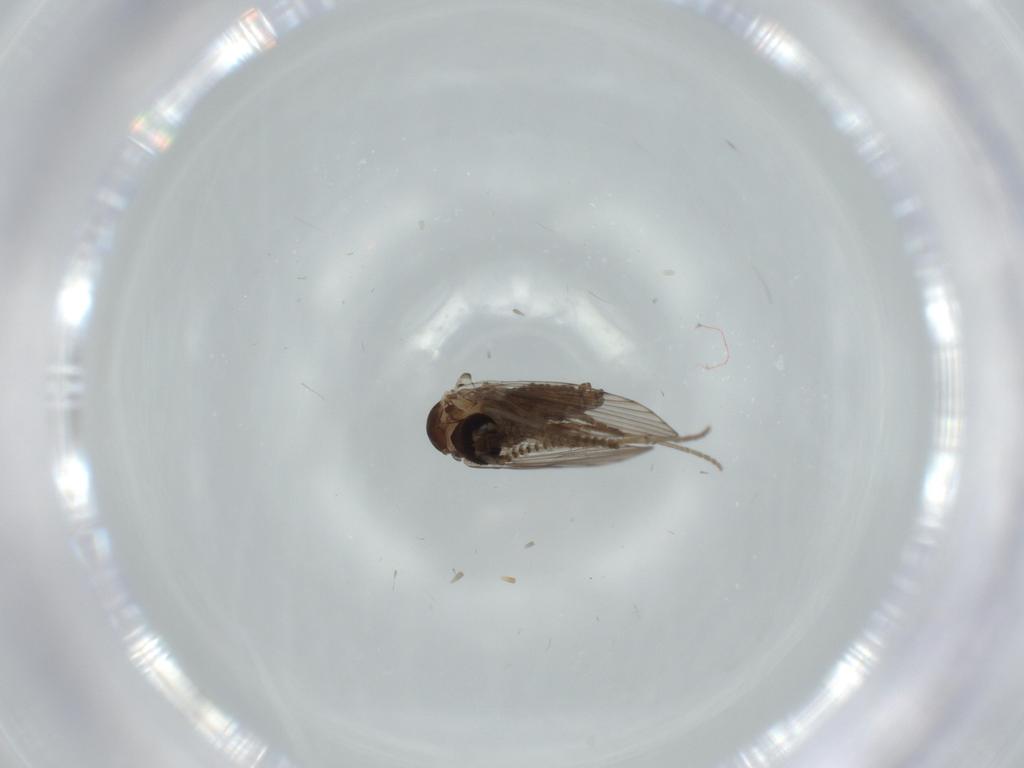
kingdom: Animalia
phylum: Arthropoda
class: Insecta
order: Diptera
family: Psychodidae
